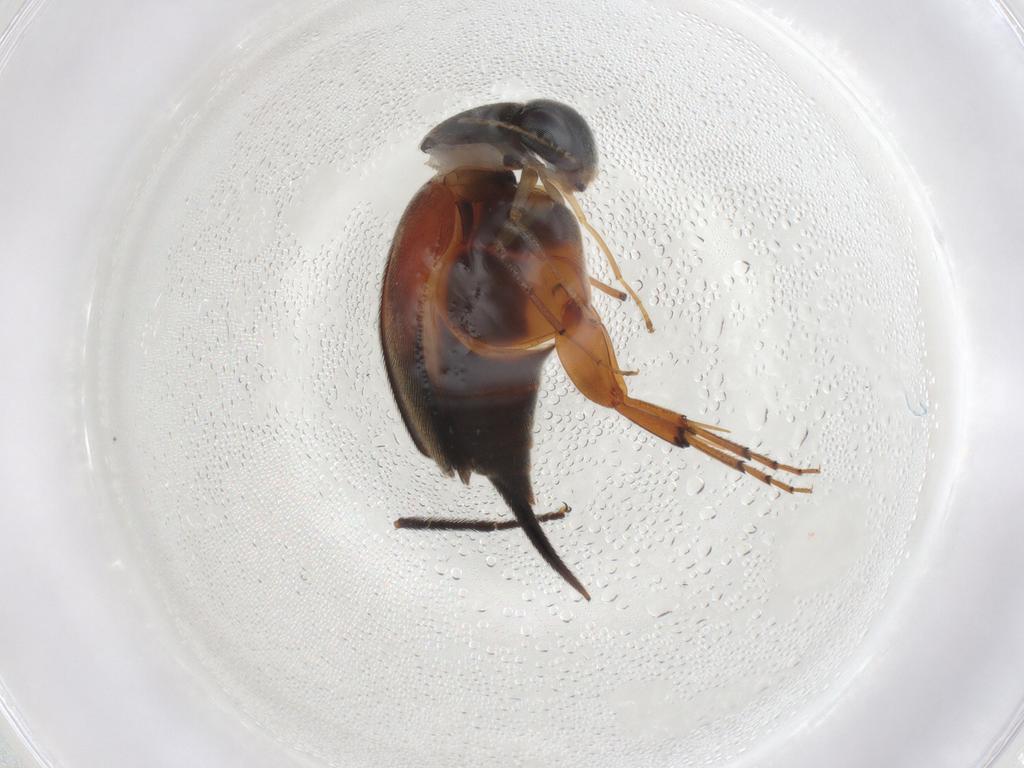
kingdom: Animalia
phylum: Arthropoda
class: Insecta
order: Coleoptera
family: Mordellidae
